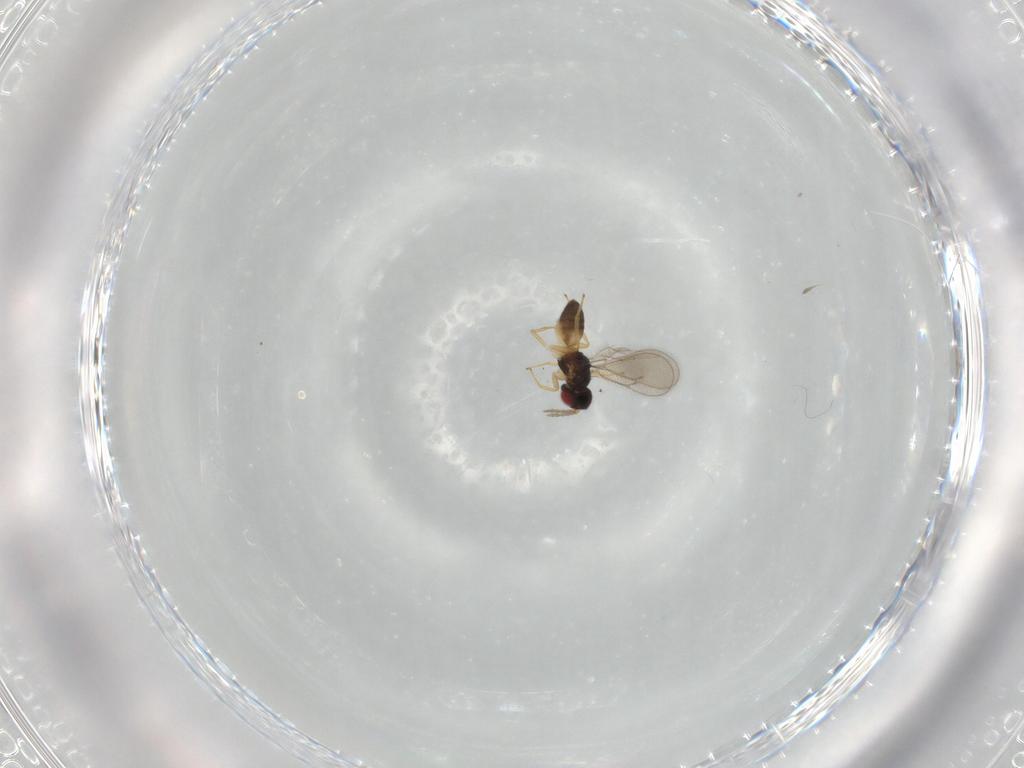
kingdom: Animalia
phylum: Arthropoda
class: Insecta
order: Hymenoptera
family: Eulophidae
